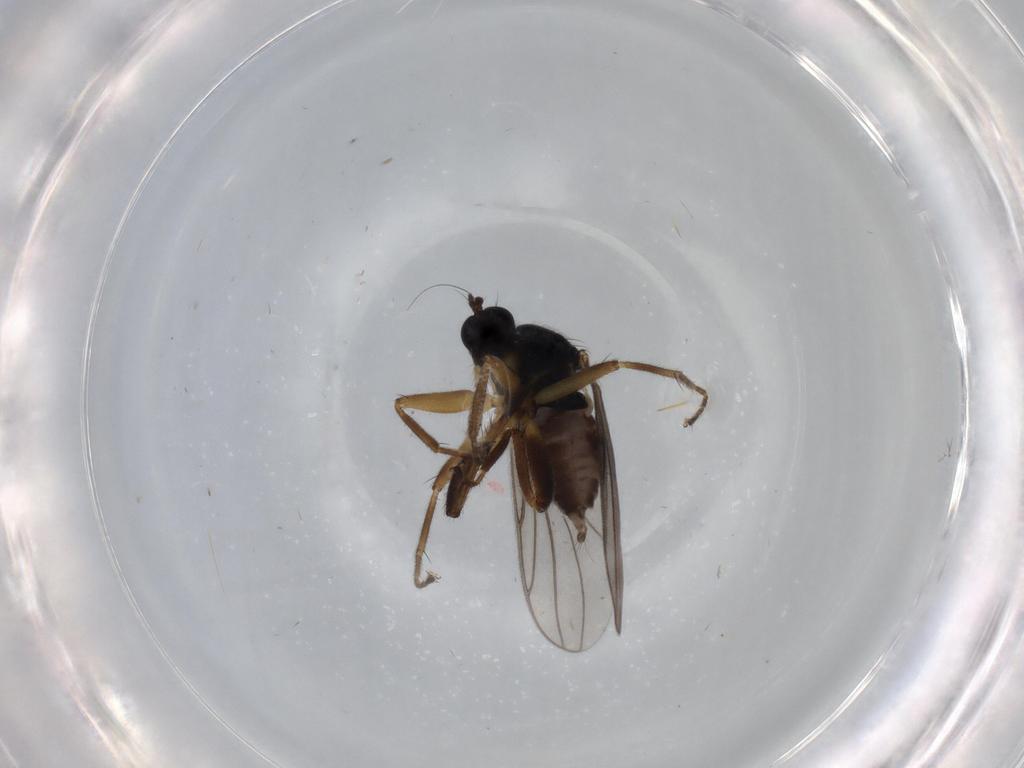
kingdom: Animalia
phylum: Arthropoda
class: Insecta
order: Diptera
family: Hybotidae
